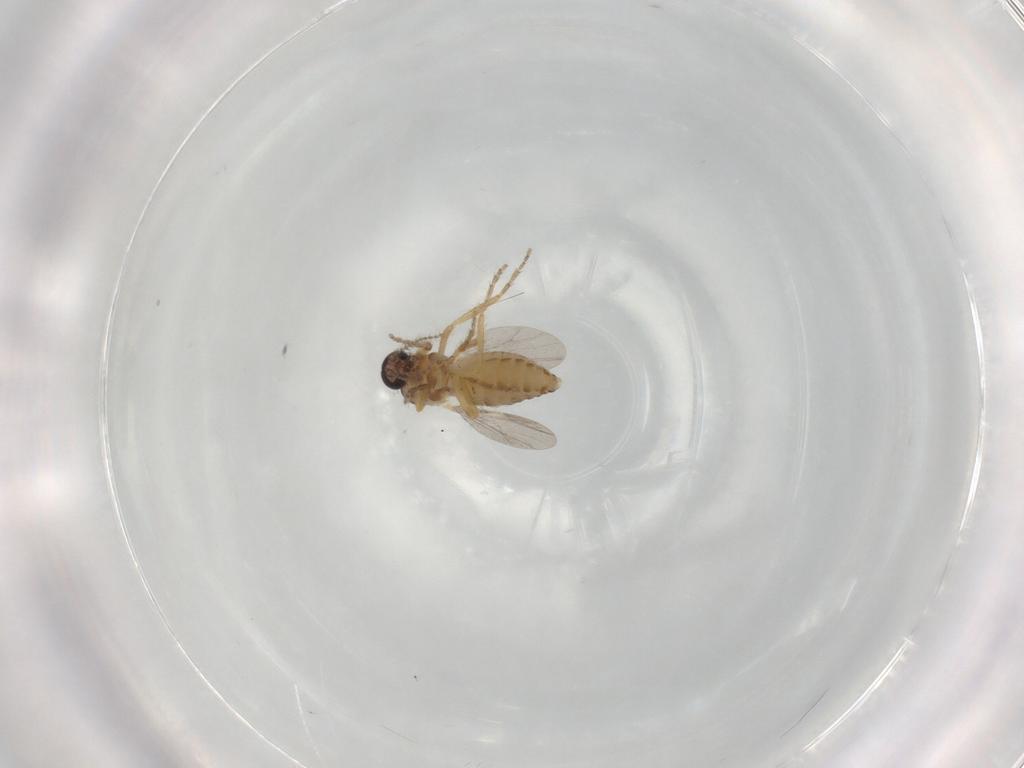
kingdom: Animalia
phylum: Arthropoda
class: Insecta
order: Diptera
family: Ceratopogonidae
